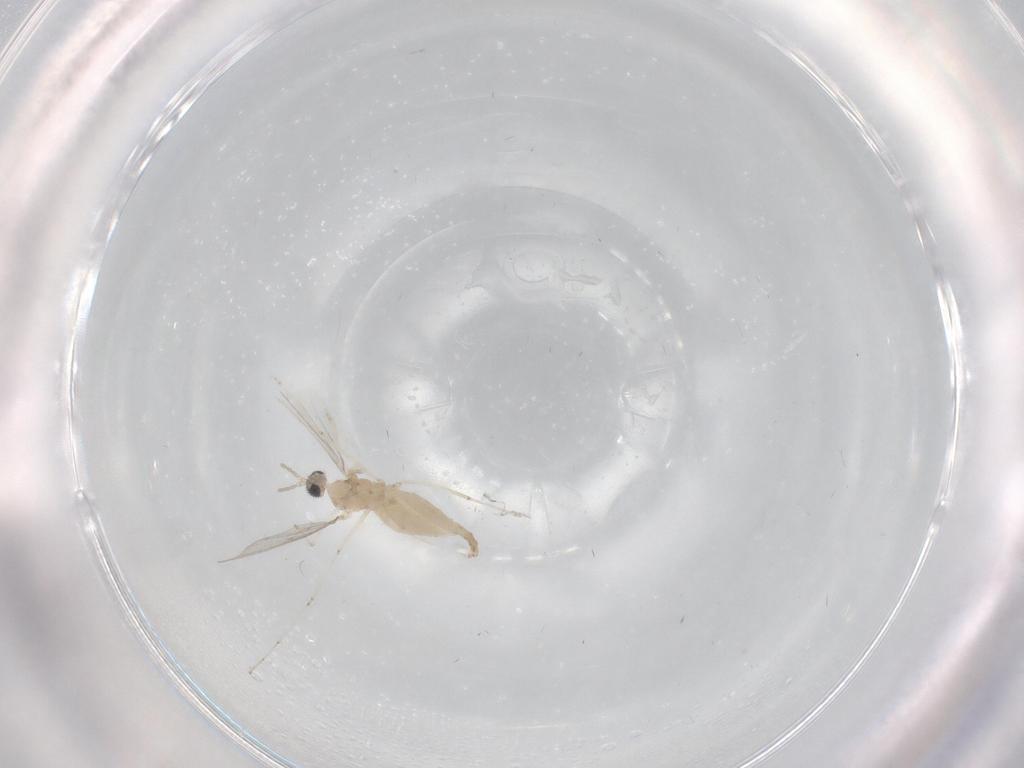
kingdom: Animalia
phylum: Arthropoda
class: Insecta
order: Diptera
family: Cecidomyiidae
